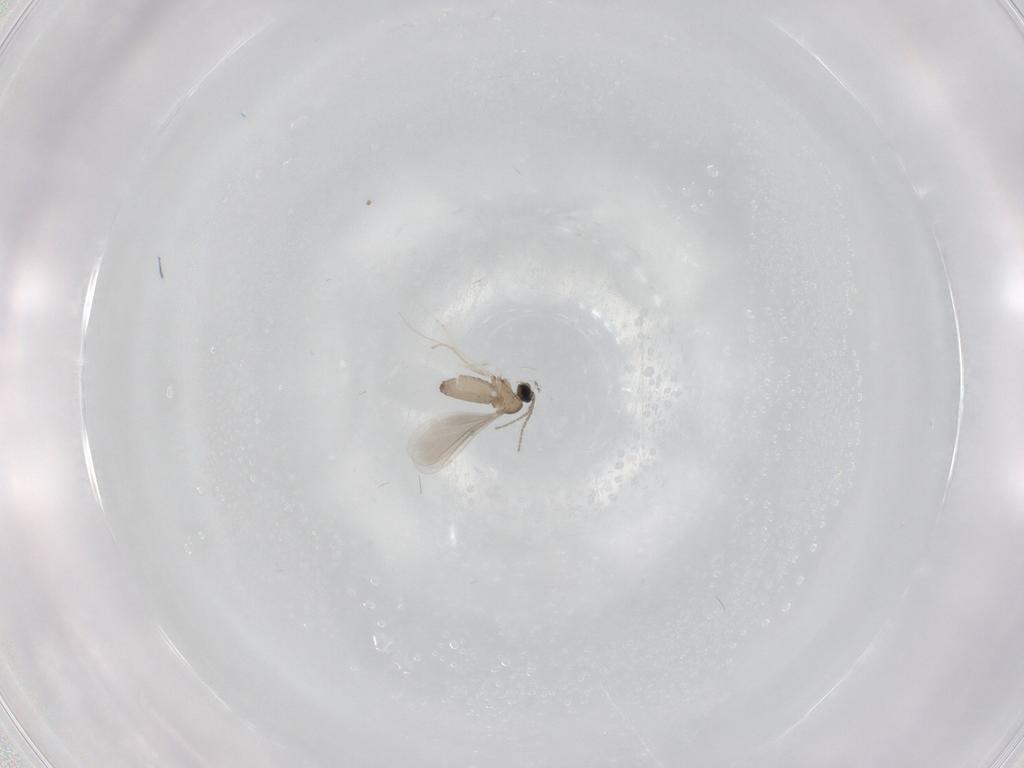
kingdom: Animalia
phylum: Arthropoda
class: Insecta
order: Diptera
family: Cecidomyiidae
